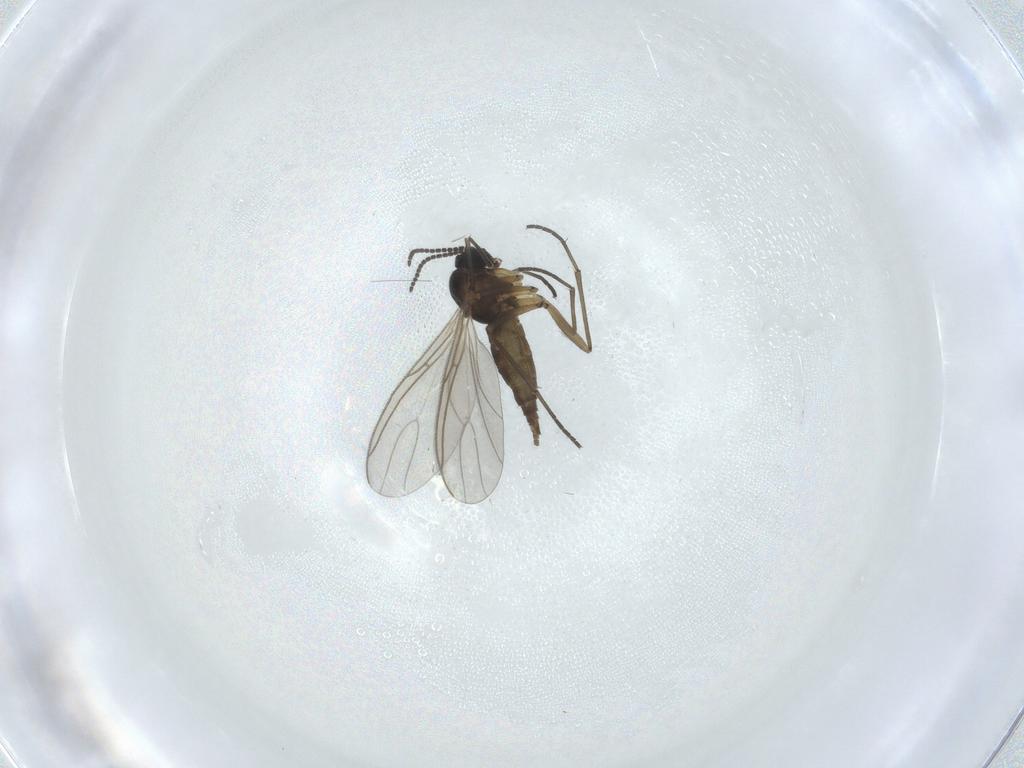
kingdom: Animalia
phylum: Arthropoda
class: Insecta
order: Diptera
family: Sciaridae
